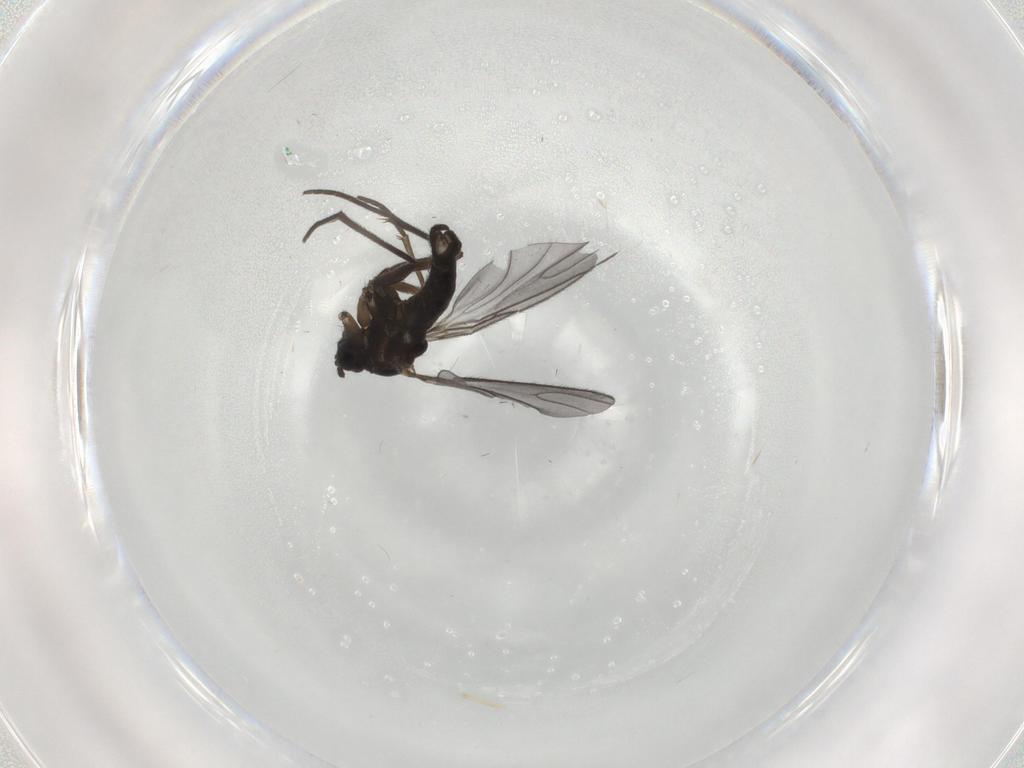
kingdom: Animalia
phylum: Arthropoda
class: Insecta
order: Diptera
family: Sciaridae
